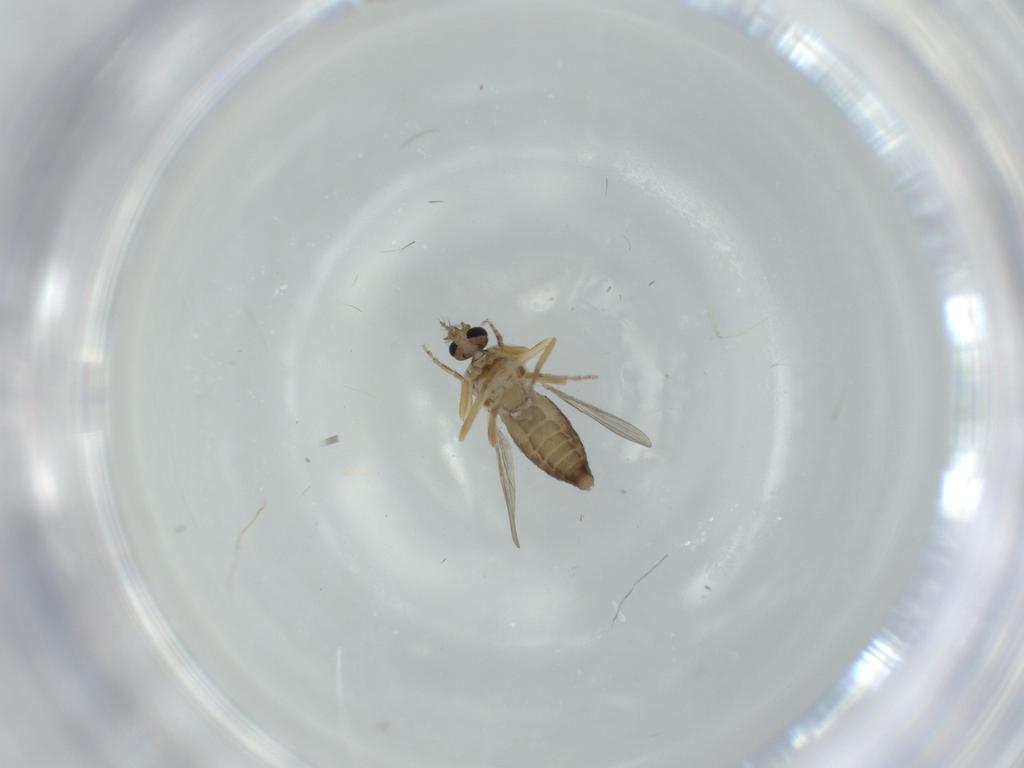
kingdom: Animalia
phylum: Arthropoda
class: Insecta
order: Diptera
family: Ceratopogonidae
